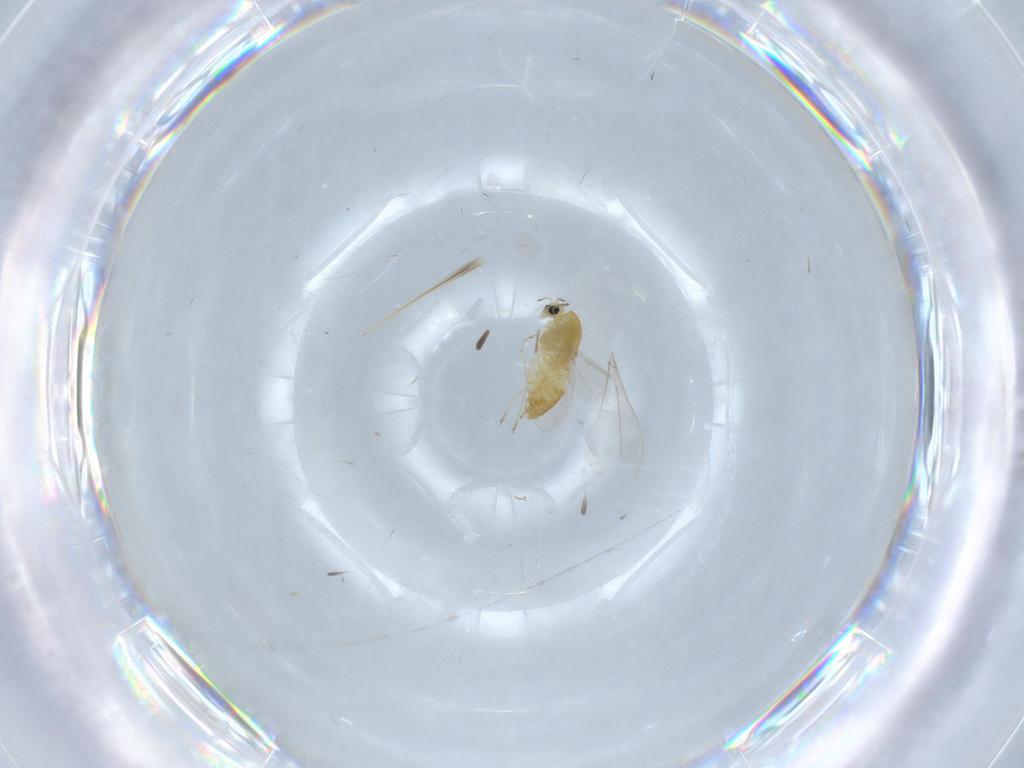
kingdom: Animalia
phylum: Arthropoda
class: Insecta
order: Diptera
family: Chironomidae
